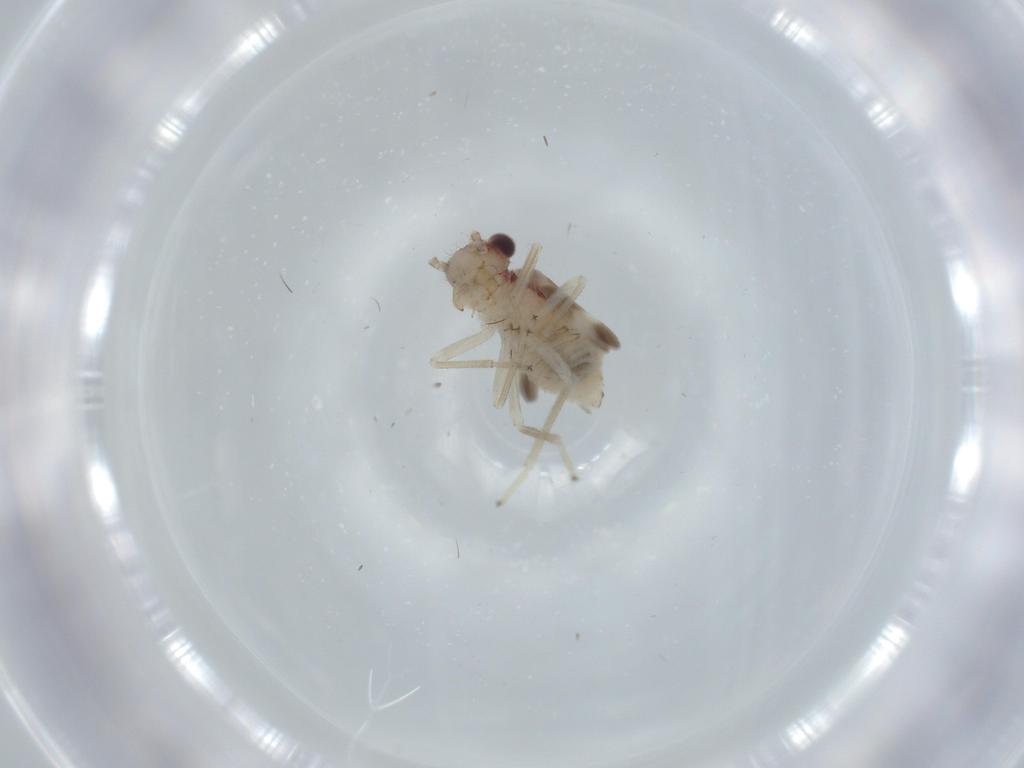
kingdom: Animalia
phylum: Arthropoda
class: Insecta
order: Psocodea
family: Amphipsocidae
